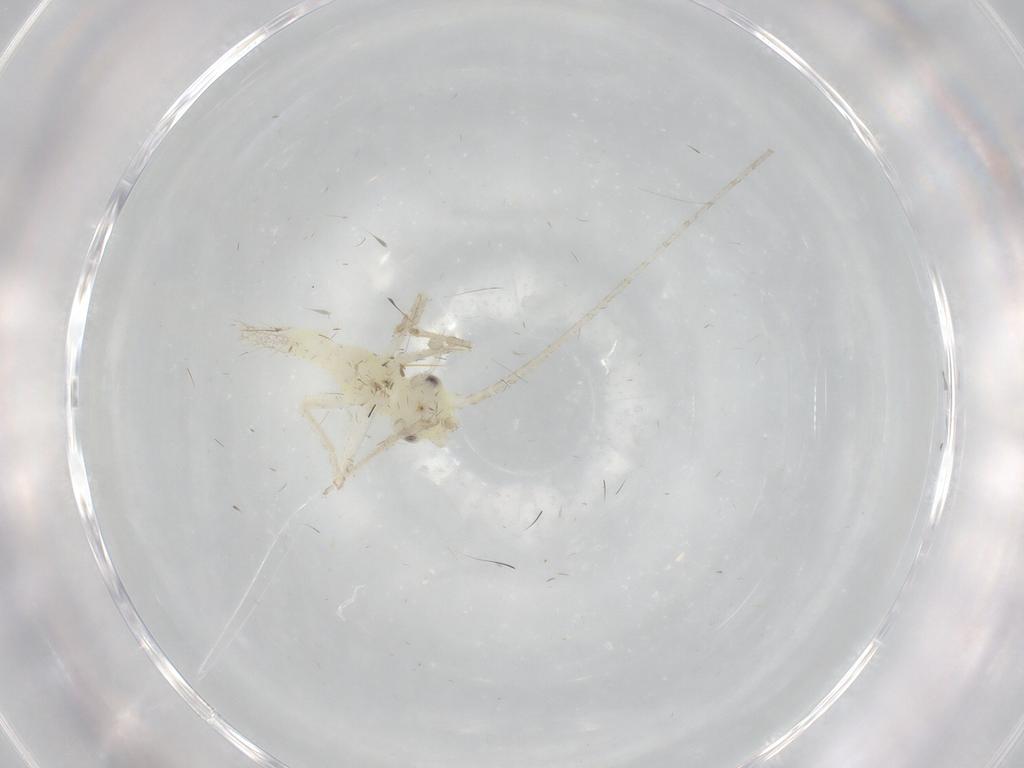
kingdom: Animalia
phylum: Arthropoda
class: Insecta
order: Orthoptera
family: Trigonidiidae
